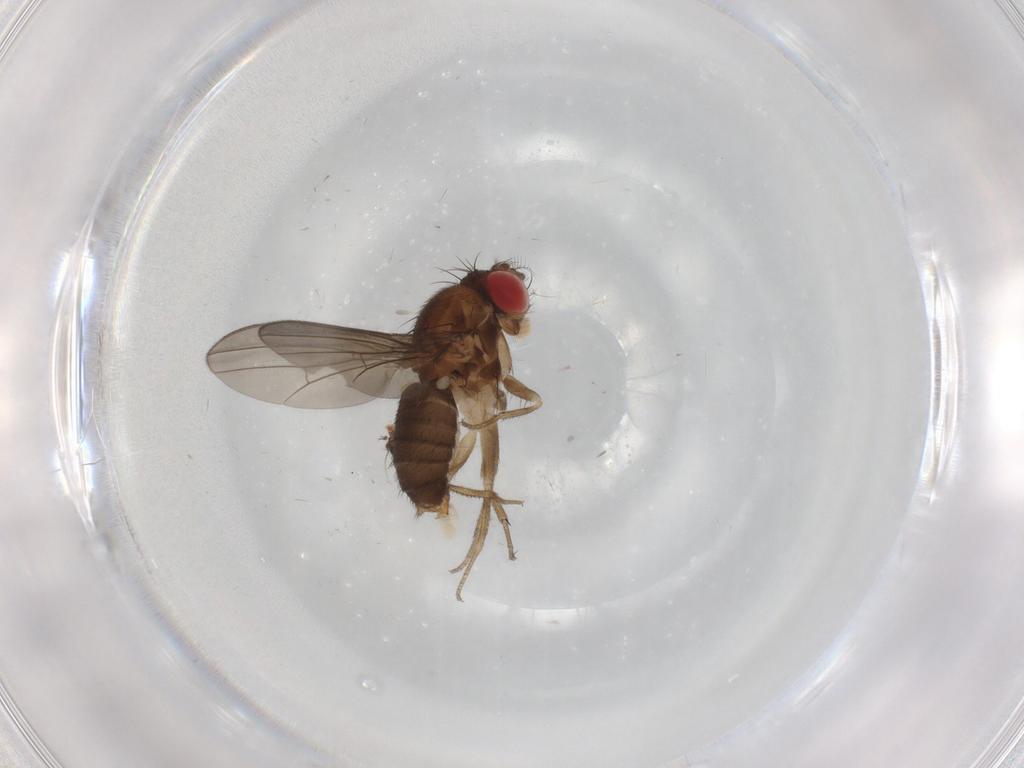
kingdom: Animalia
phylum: Arthropoda
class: Insecta
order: Diptera
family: Drosophilidae
